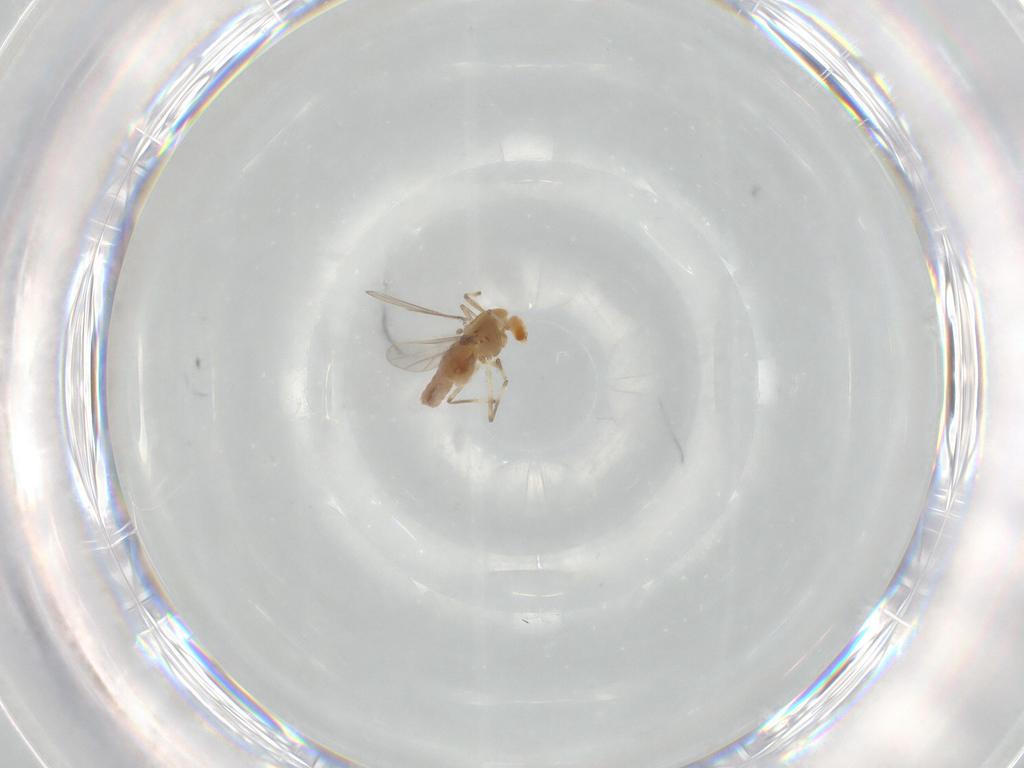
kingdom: Animalia
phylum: Arthropoda
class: Insecta
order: Diptera
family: Chironomidae
